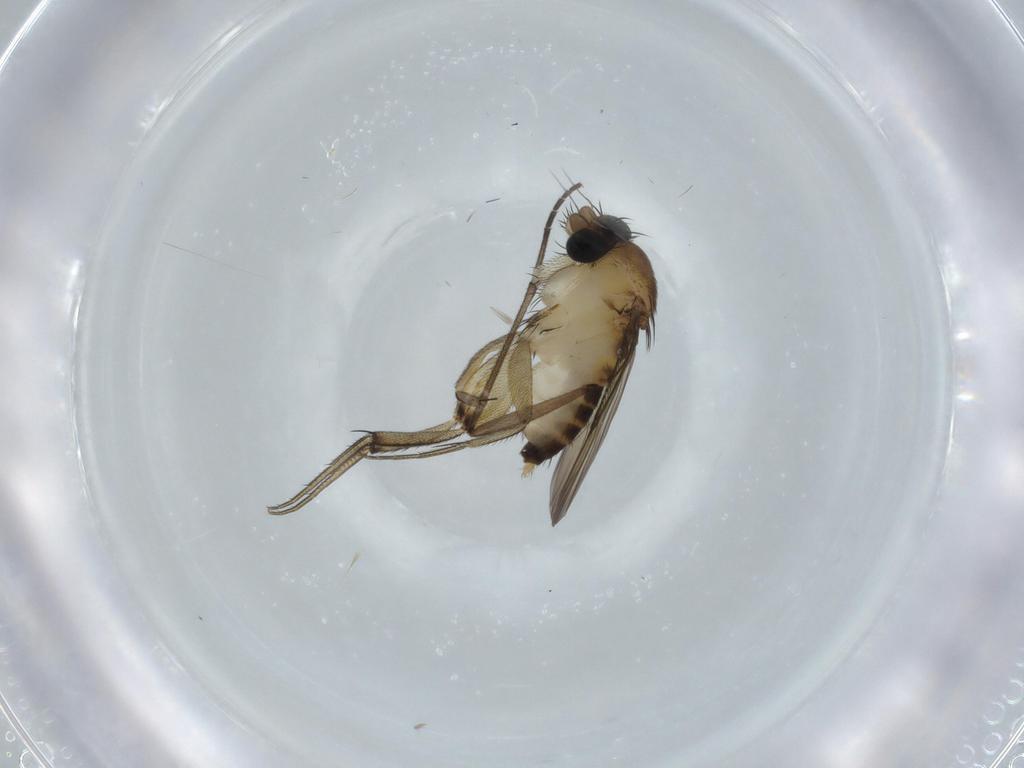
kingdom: Animalia
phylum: Arthropoda
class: Insecta
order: Diptera
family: Phoridae
